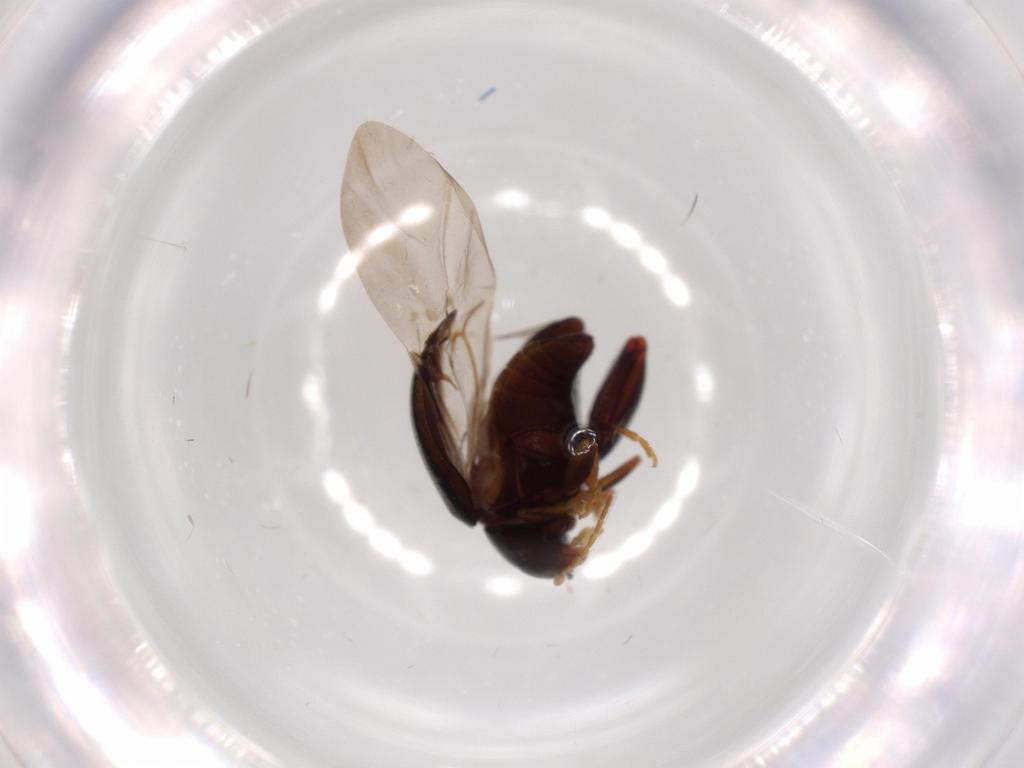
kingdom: Animalia
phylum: Arthropoda
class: Insecta
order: Coleoptera
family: Chrysomelidae
